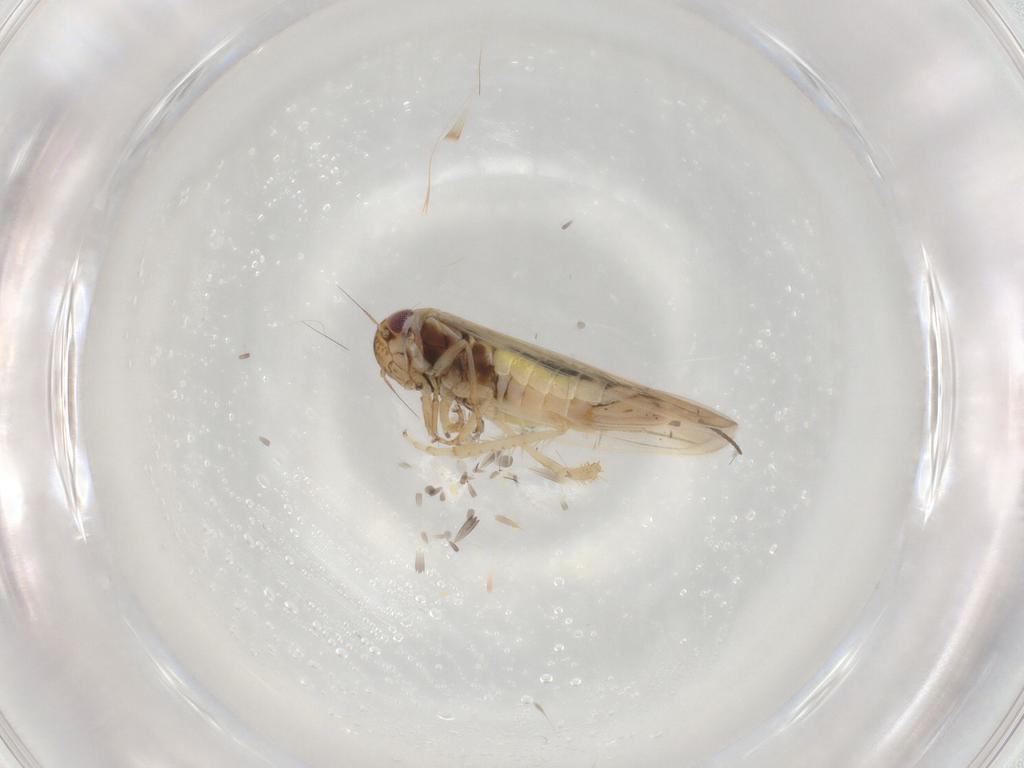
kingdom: Animalia
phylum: Arthropoda
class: Insecta
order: Hemiptera
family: Cicadellidae
